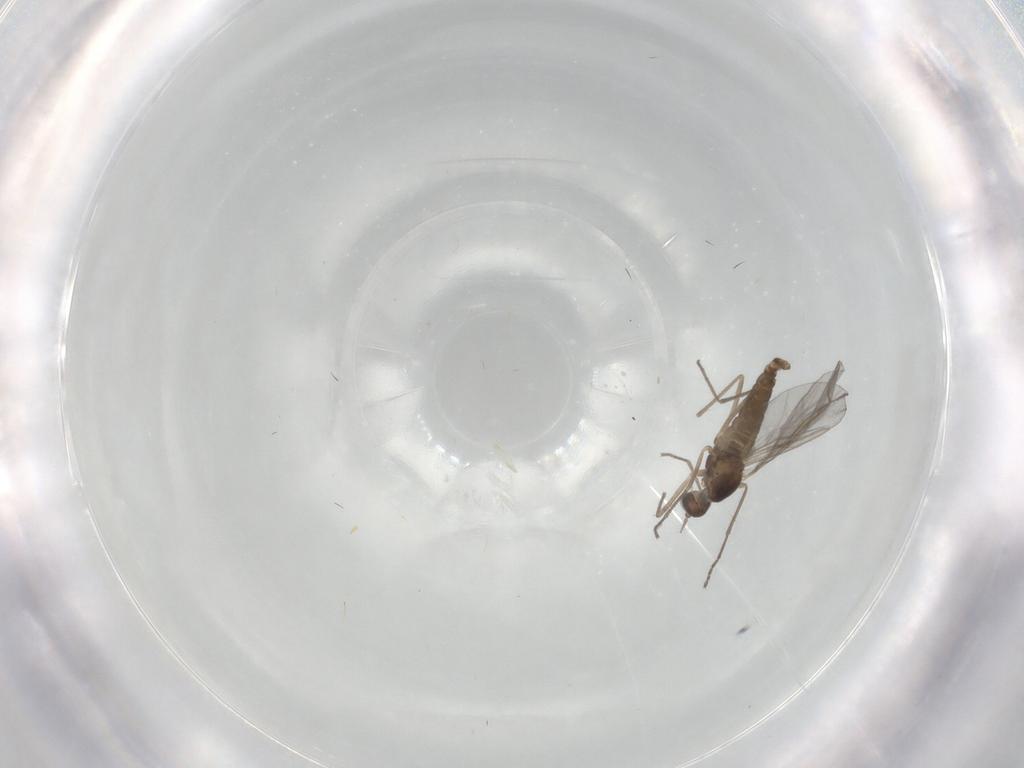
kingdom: Animalia
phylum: Arthropoda
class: Insecta
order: Diptera
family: Cecidomyiidae
